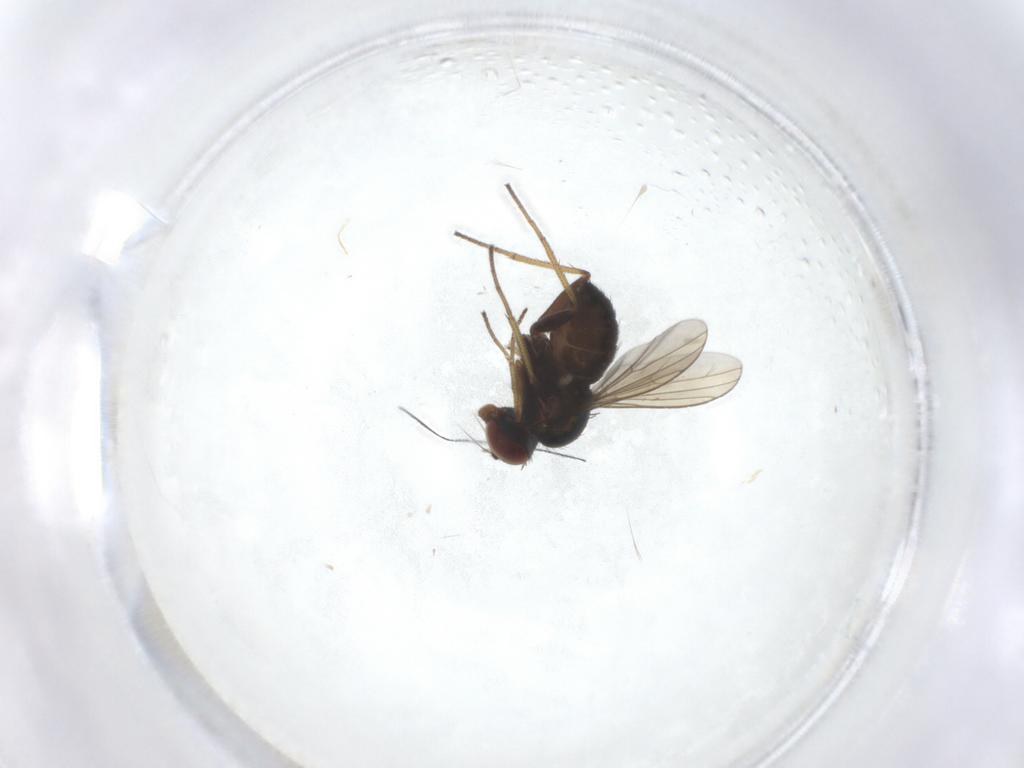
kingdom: Animalia
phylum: Arthropoda
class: Insecta
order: Diptera
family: Dolichopodidae
